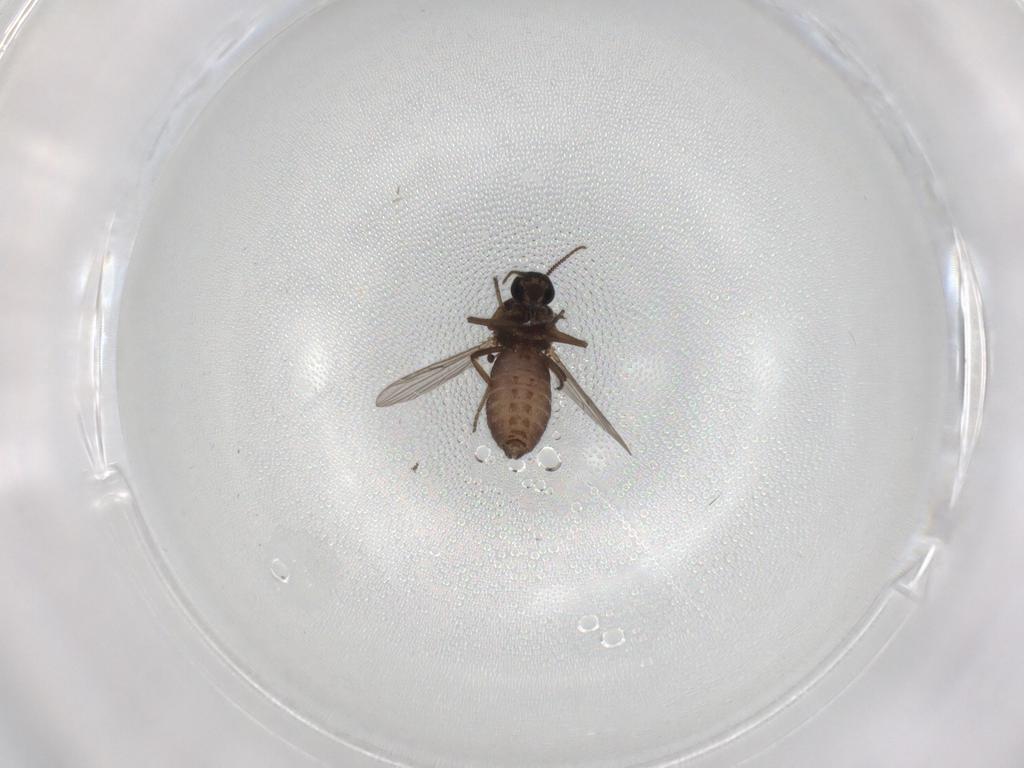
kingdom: Animalia
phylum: Arthropoda
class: Insecta
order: Diptera
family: Ceratopogonidae
